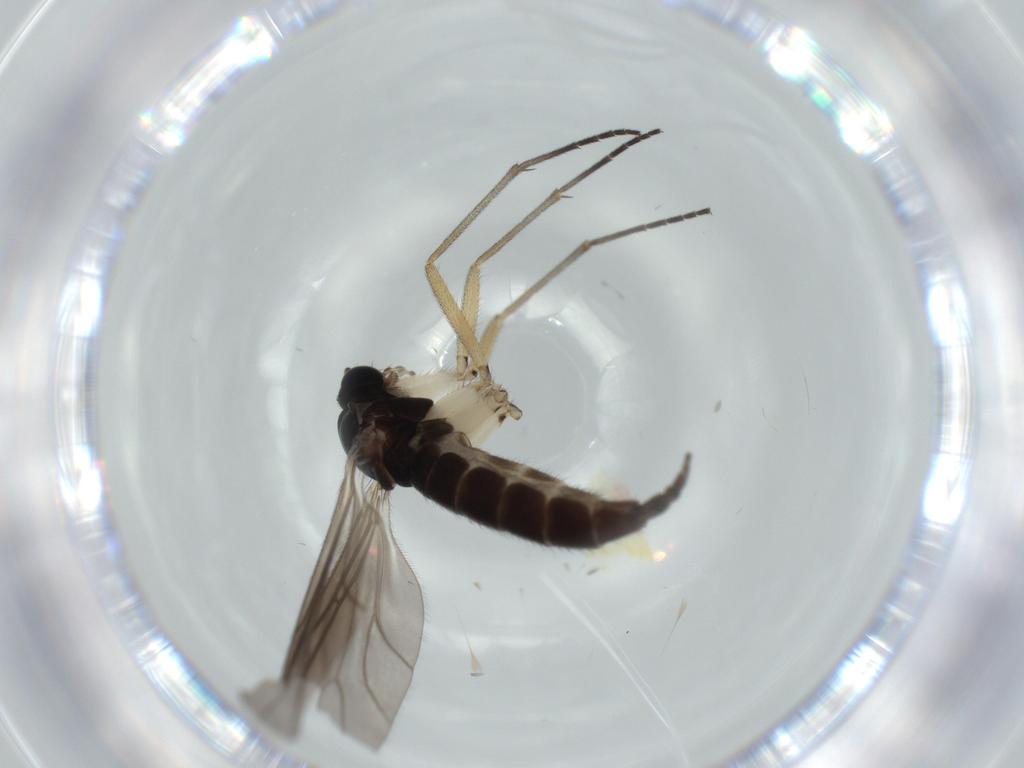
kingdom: Animalia
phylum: Arthropoda
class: Insecta
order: Diptera
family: Sciaridae
